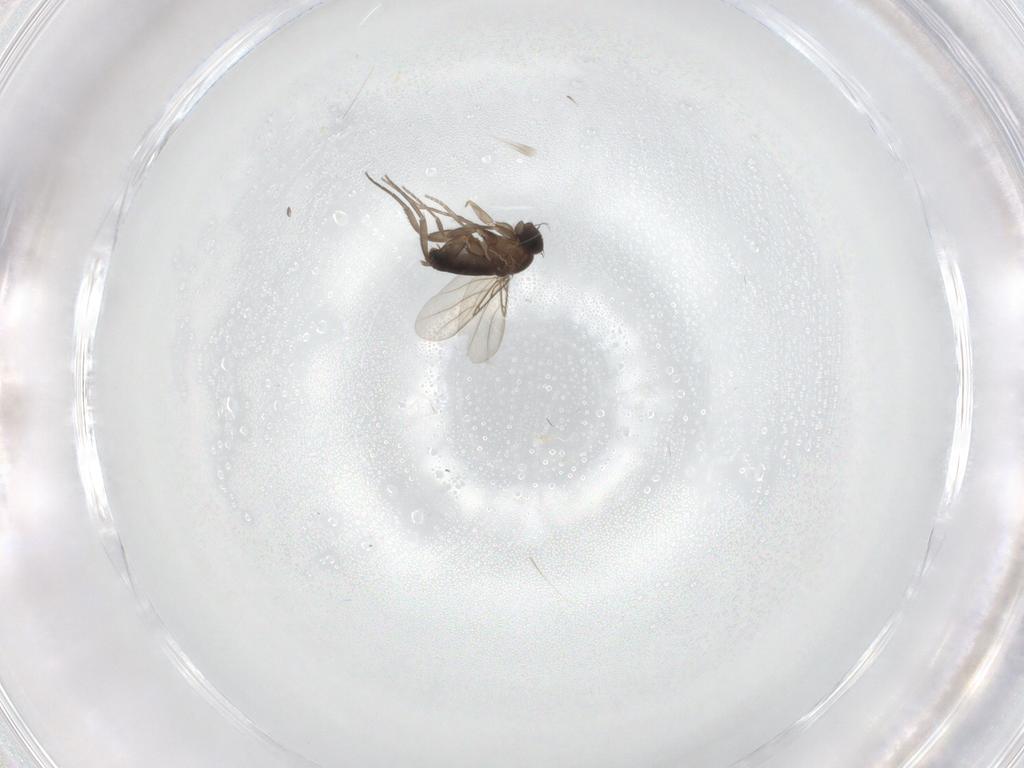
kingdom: Animalia
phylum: Arthropoda
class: Insecta
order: Diptera
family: Phoridae
